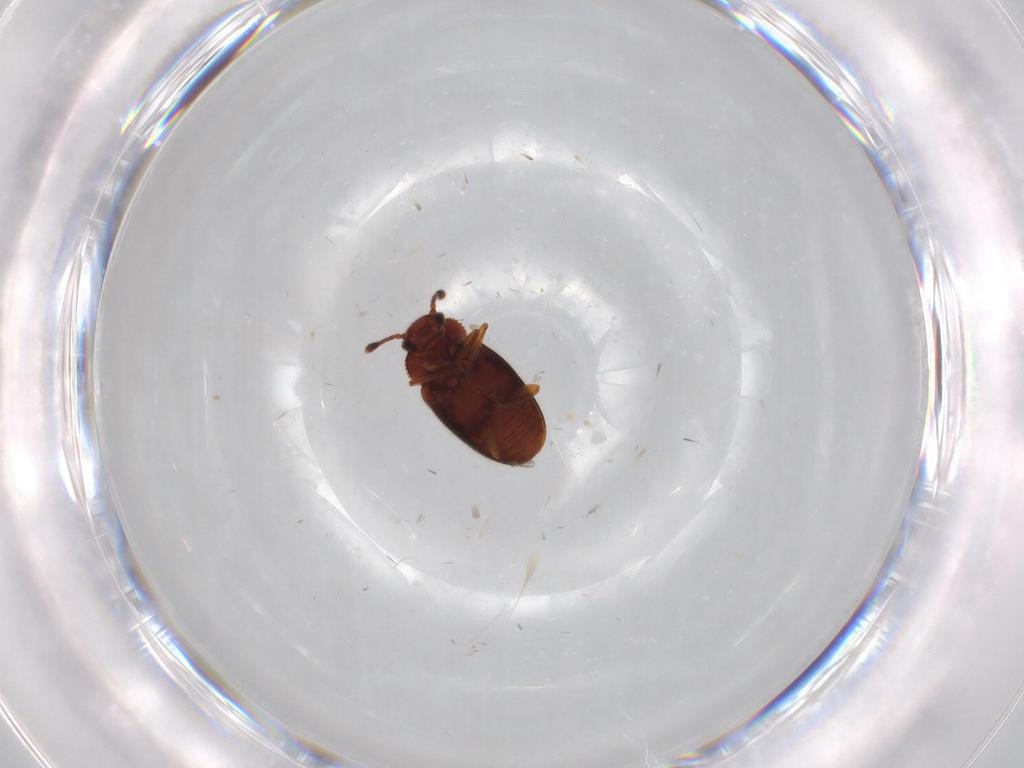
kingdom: Animalia
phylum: Arthropoda
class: Insecta
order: Coleoptera
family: Cryptophagidae
